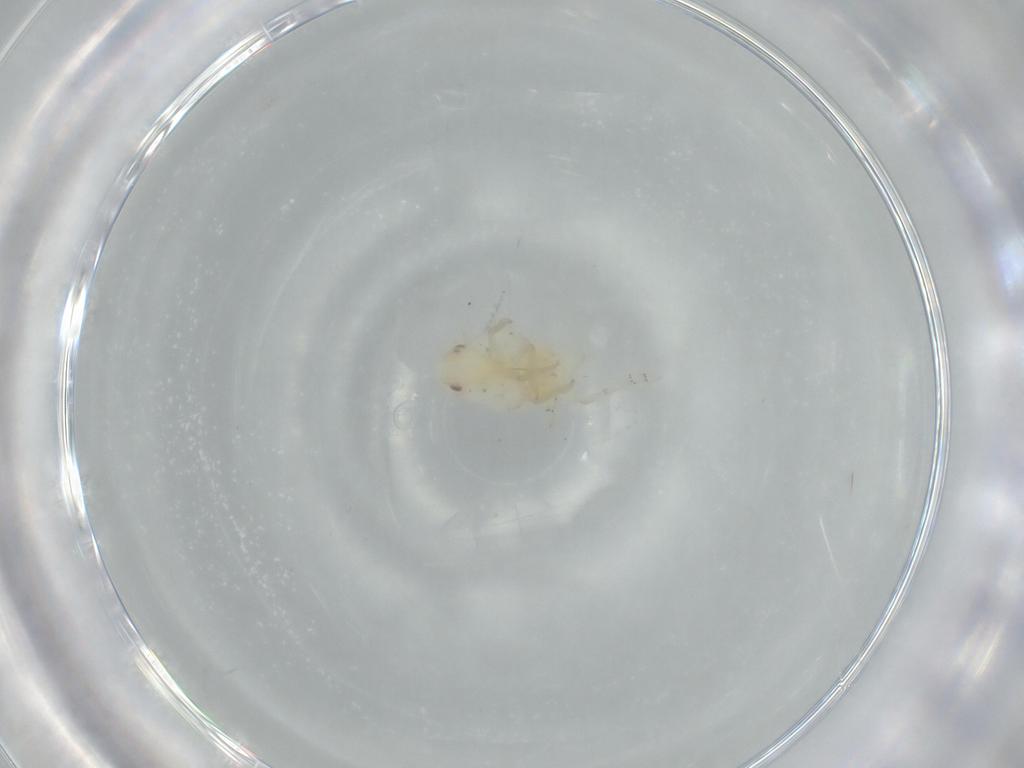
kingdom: Animalia
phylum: Arthropoda
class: Insecta
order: Hemiptera
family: Flatidae
